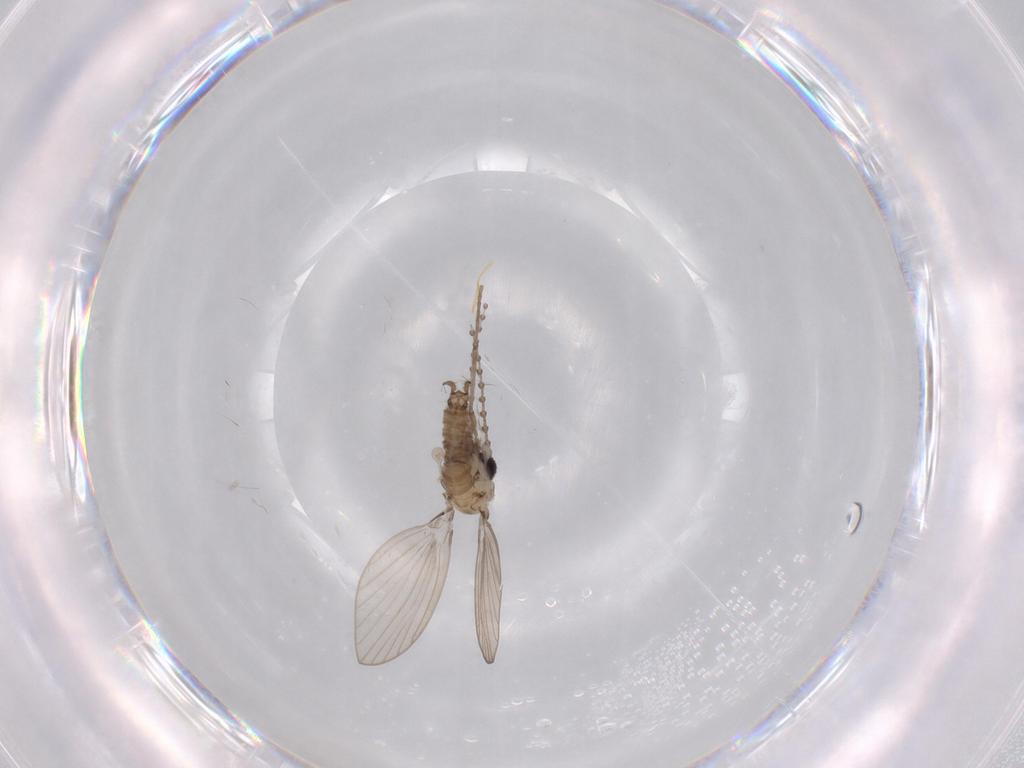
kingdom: Animalia
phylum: Arthropoda
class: Insecta
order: Diptera
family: Psychodidae
